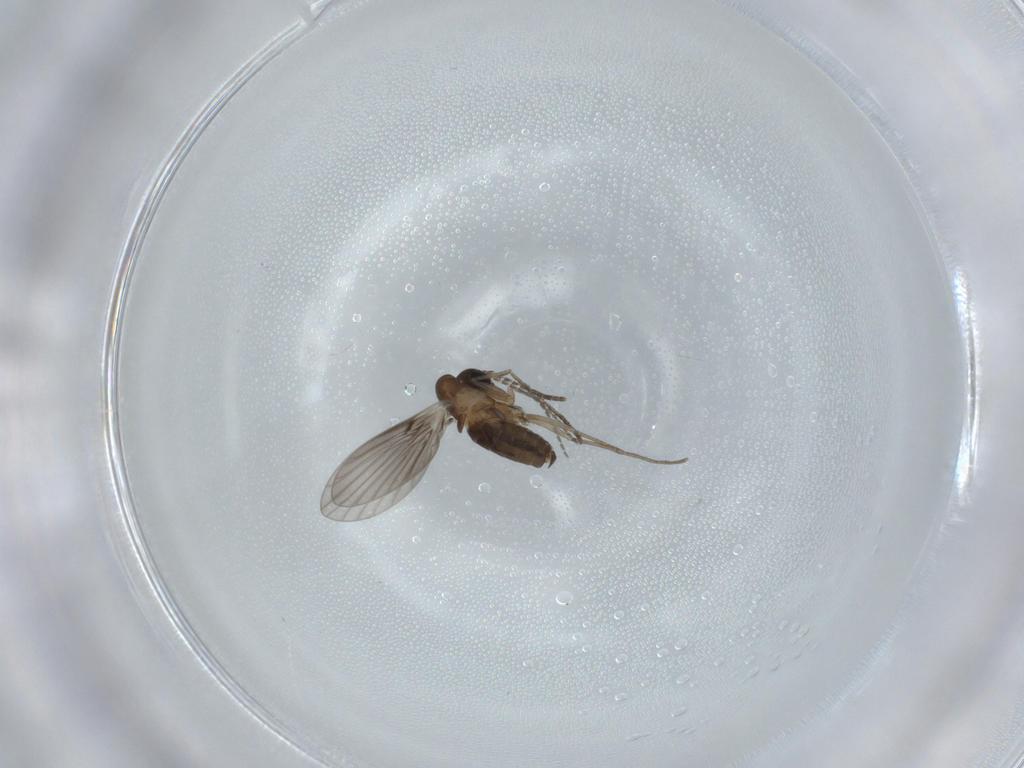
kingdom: Animalia
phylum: Arthropoda
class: Insecta
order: Diptera
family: Psychodidae
